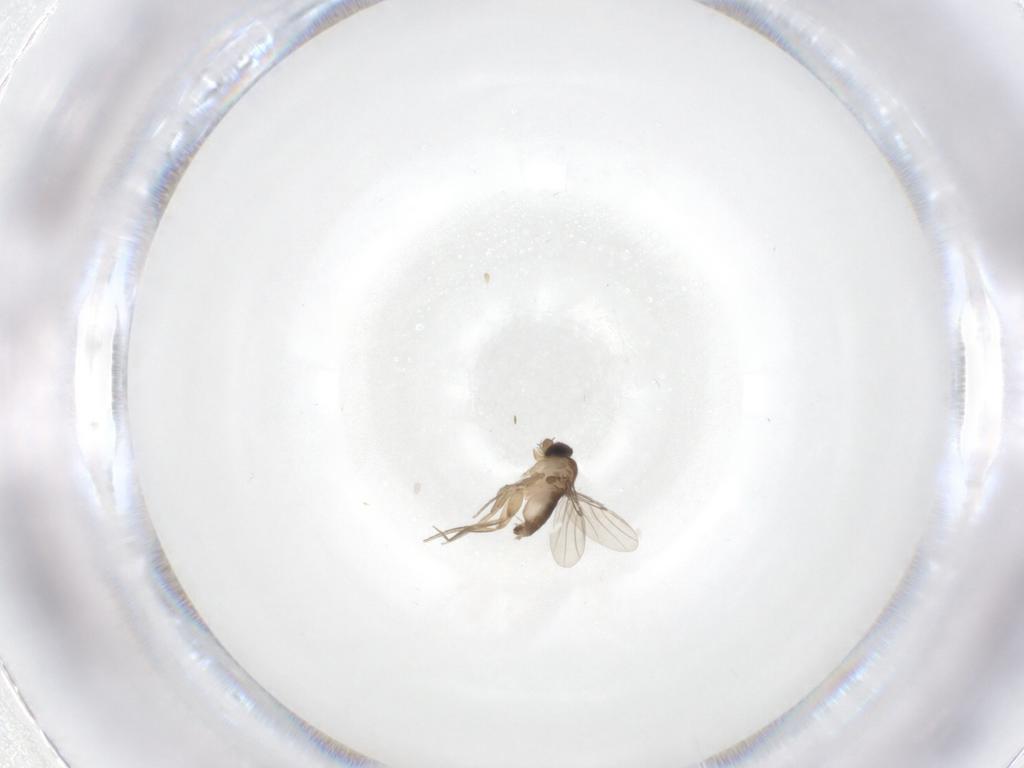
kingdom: Animalia
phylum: Arthropoda
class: Insecta
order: Diptera
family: Phoridae
